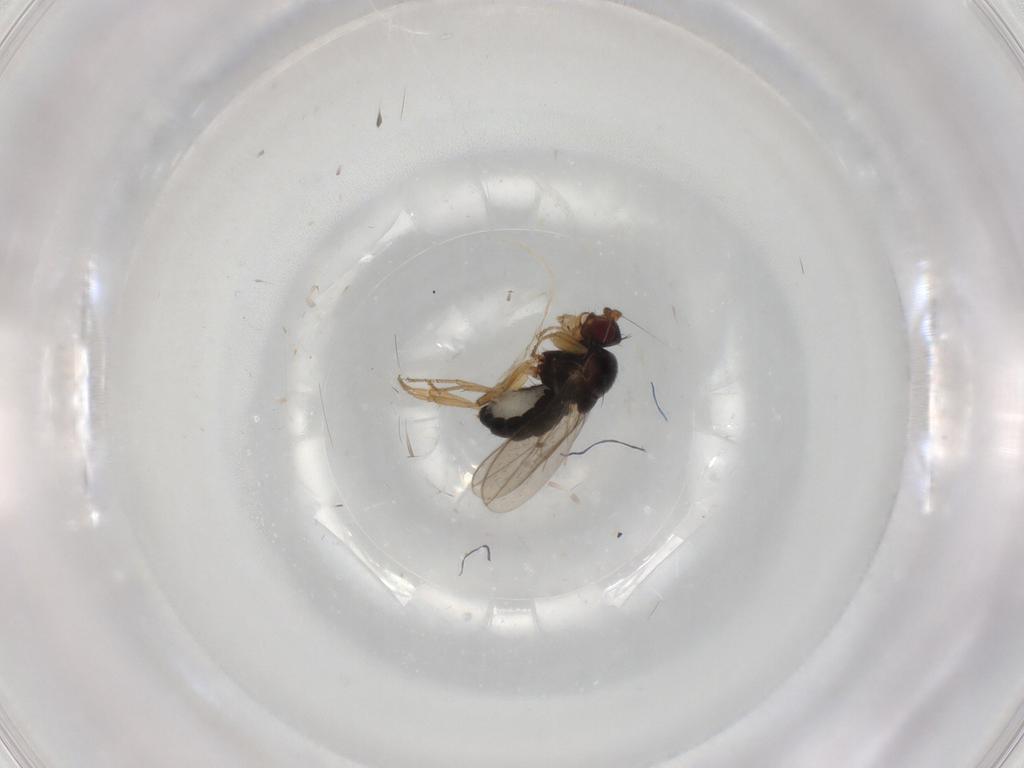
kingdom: Animalia
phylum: Arthropoda
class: Insecta
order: Diptera
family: Sphaeroceridae
